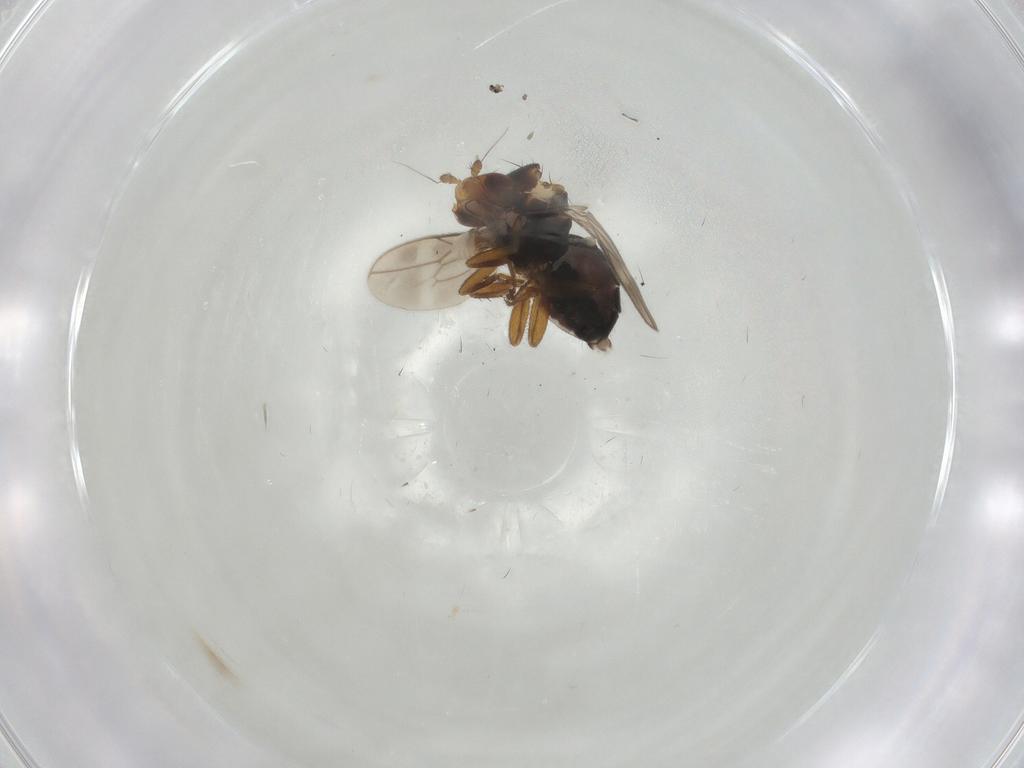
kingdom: Animalia
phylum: Arthropoda
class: Insecta
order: Diptera
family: Sphaeroceridae
